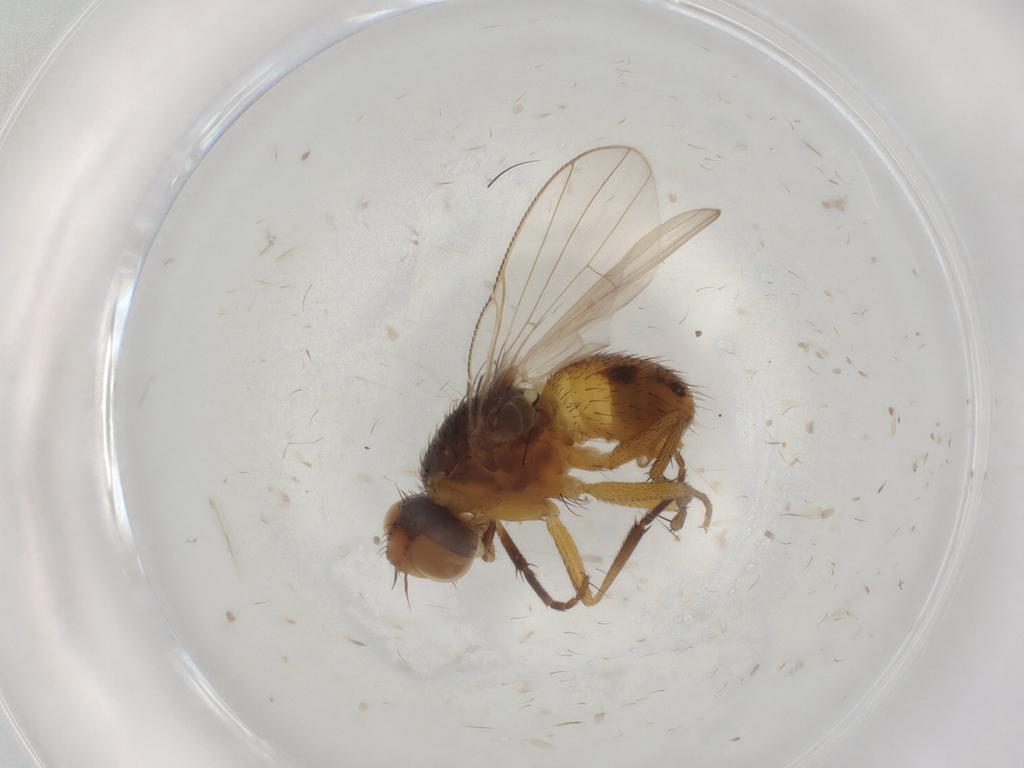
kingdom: Animalia
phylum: Arthropoda
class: Insecta
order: Diptera
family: Muscidae
